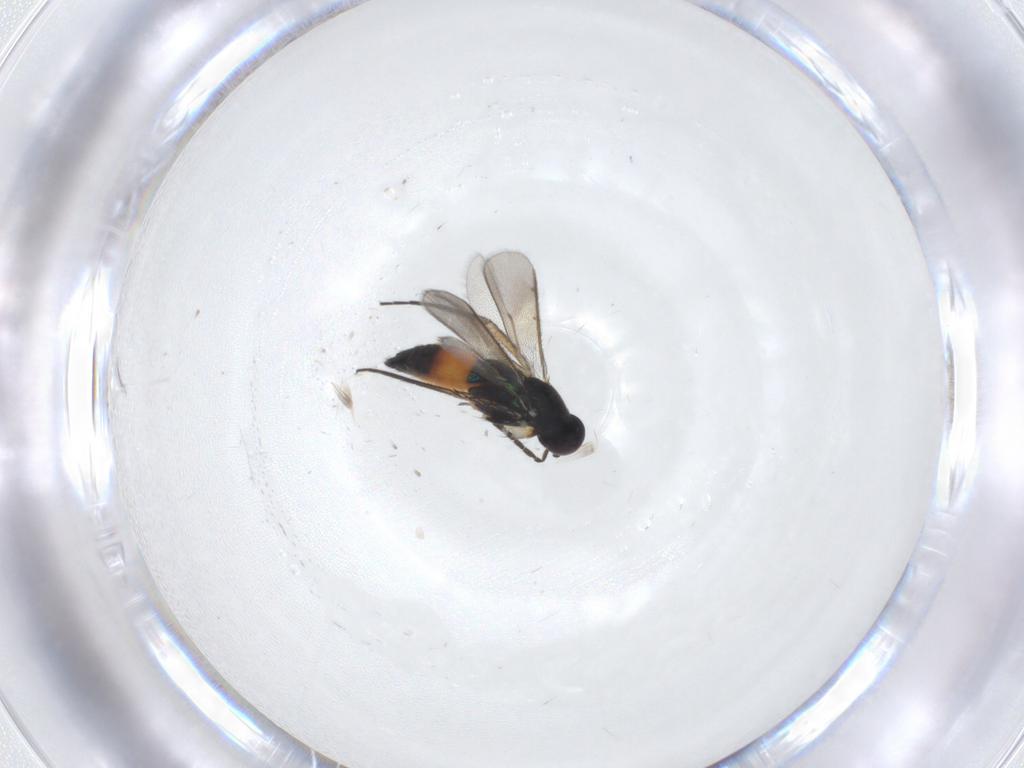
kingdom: Animalia
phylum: Arthropoda
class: Insecta
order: Hymenoptera
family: Eulophidae
